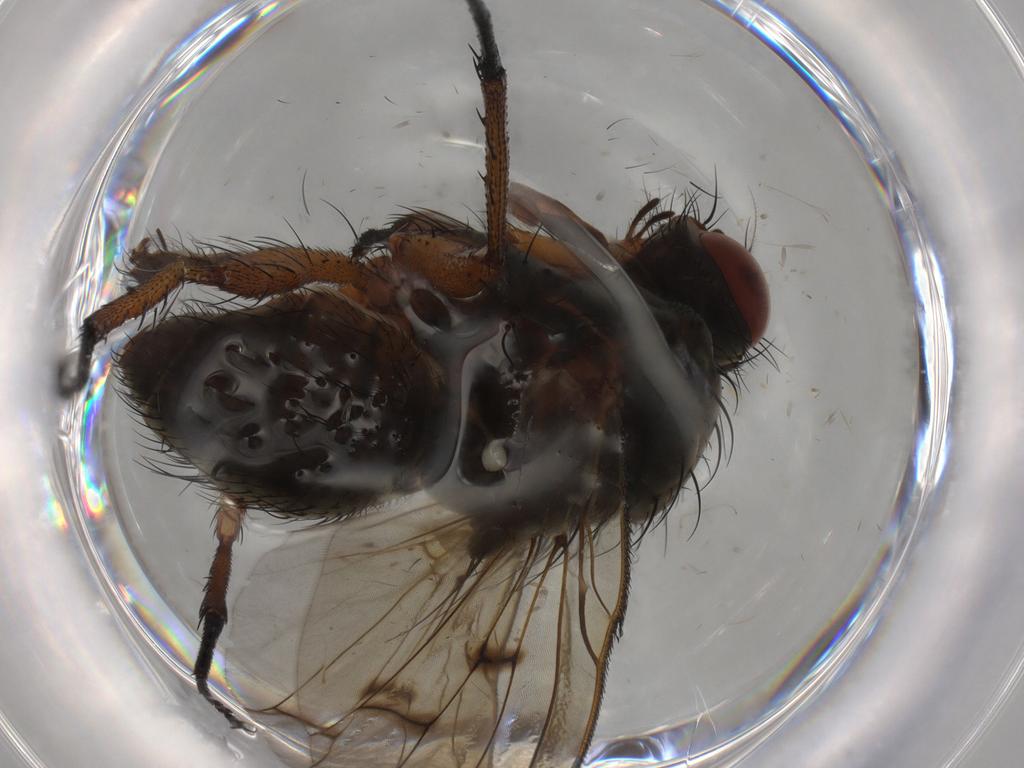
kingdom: Animalia
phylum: Arthropoda
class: Insecta
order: Diptera
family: Anthomyiidae
